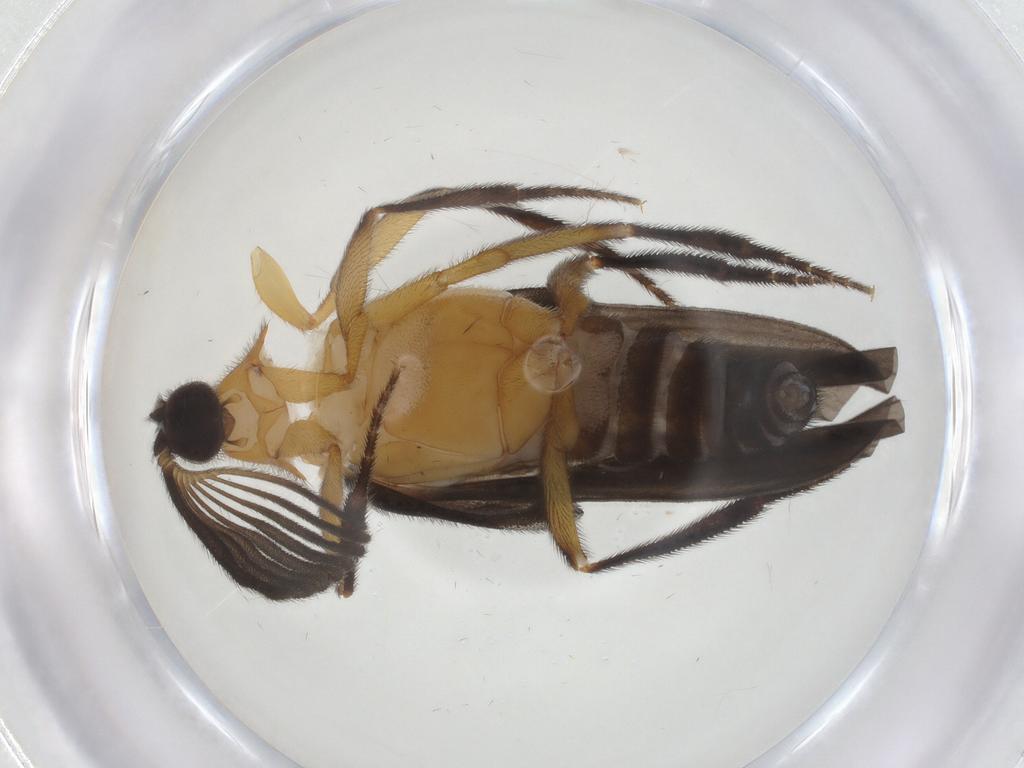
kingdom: Animalia
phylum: Arthropoda
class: Insecta
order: Coleoptera
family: Ripiphoridae
